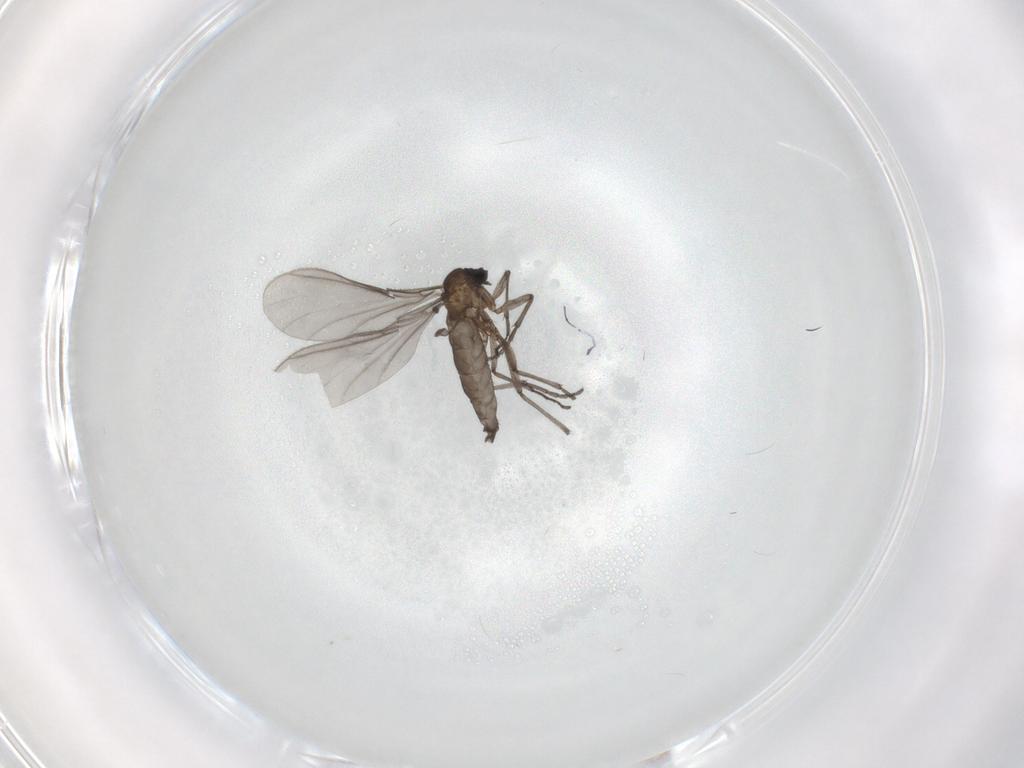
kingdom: Animalia
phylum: Arthropoda
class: Insecta
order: Diptera
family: Sciaridae
